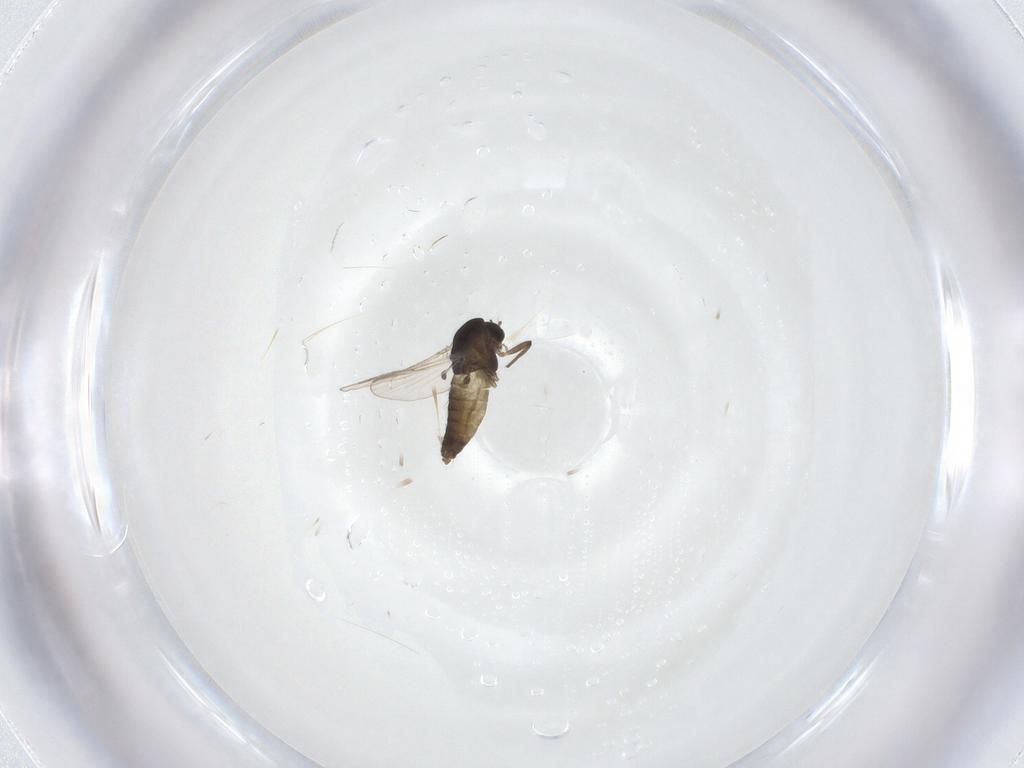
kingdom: Animalia
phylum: Arthropoda
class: Insecta
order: Diptera
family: Chironomidae
